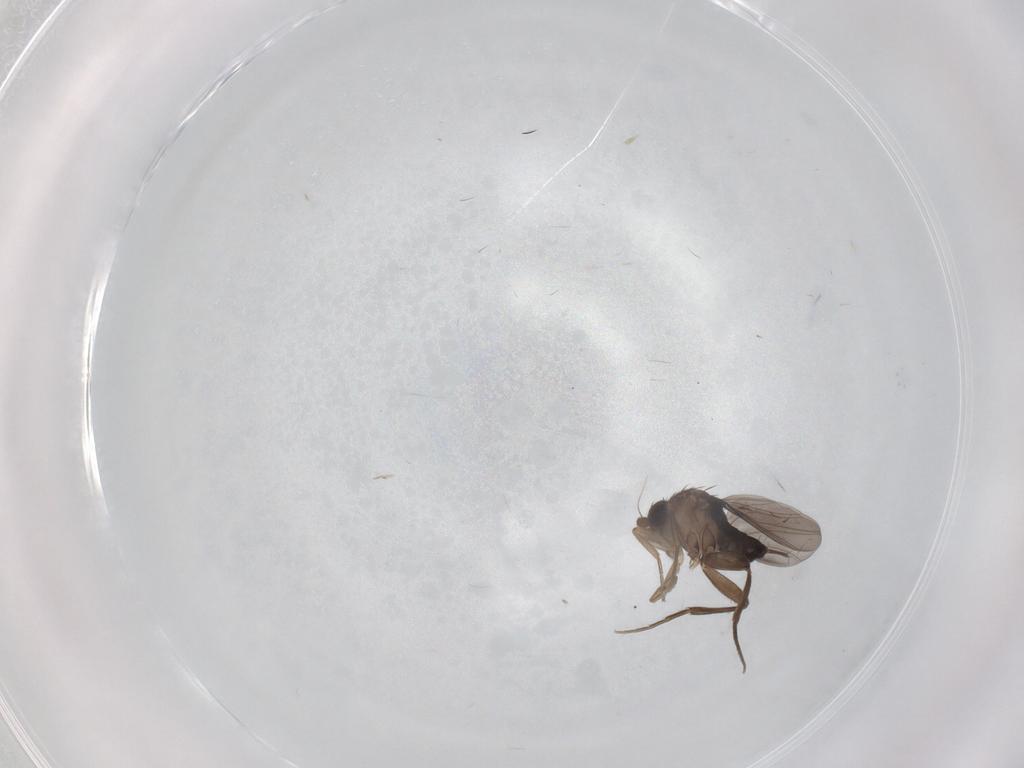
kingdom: Animalia
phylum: Arthropoda
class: Insecta
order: Diptera
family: Phoridae
